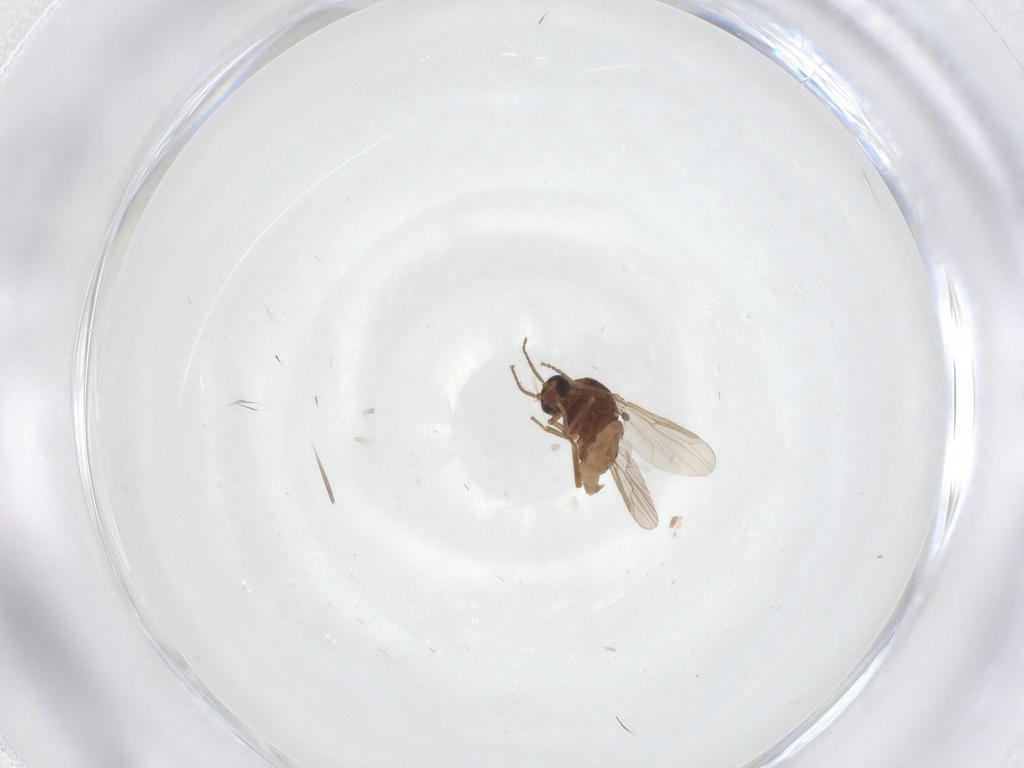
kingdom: Animalia
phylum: Arthropoda
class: Insecta
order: Diptera
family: Ceratopogonidae
